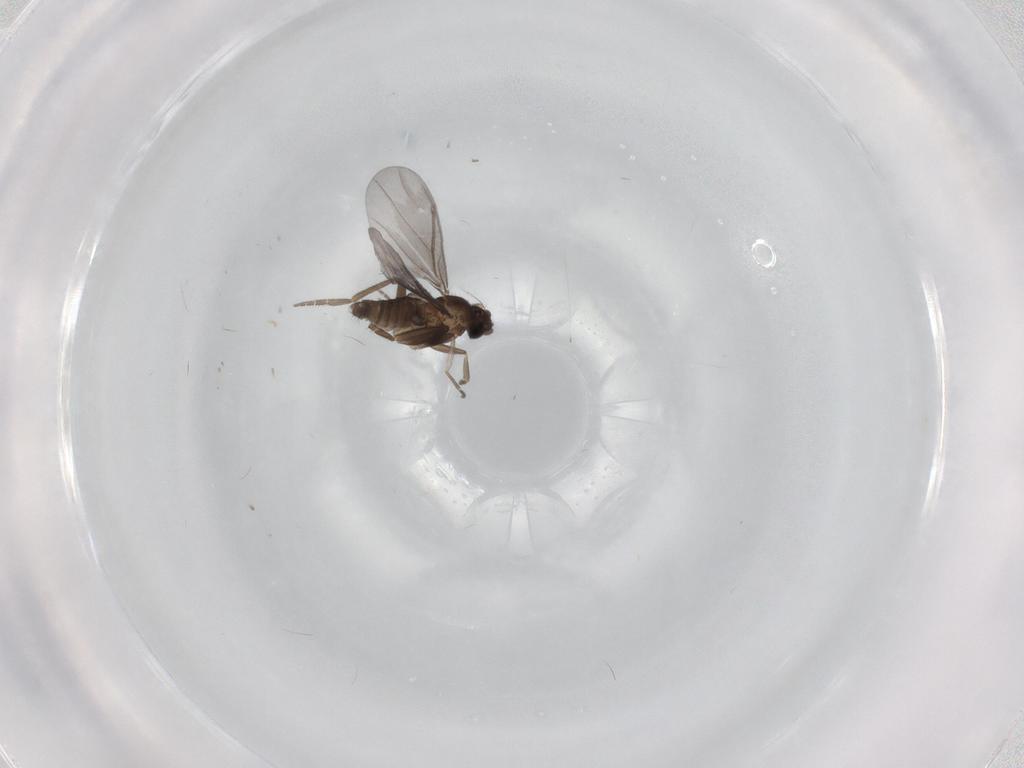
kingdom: Animalia
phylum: Arthropoda
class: Insecta
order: Diptera
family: Phoridae
